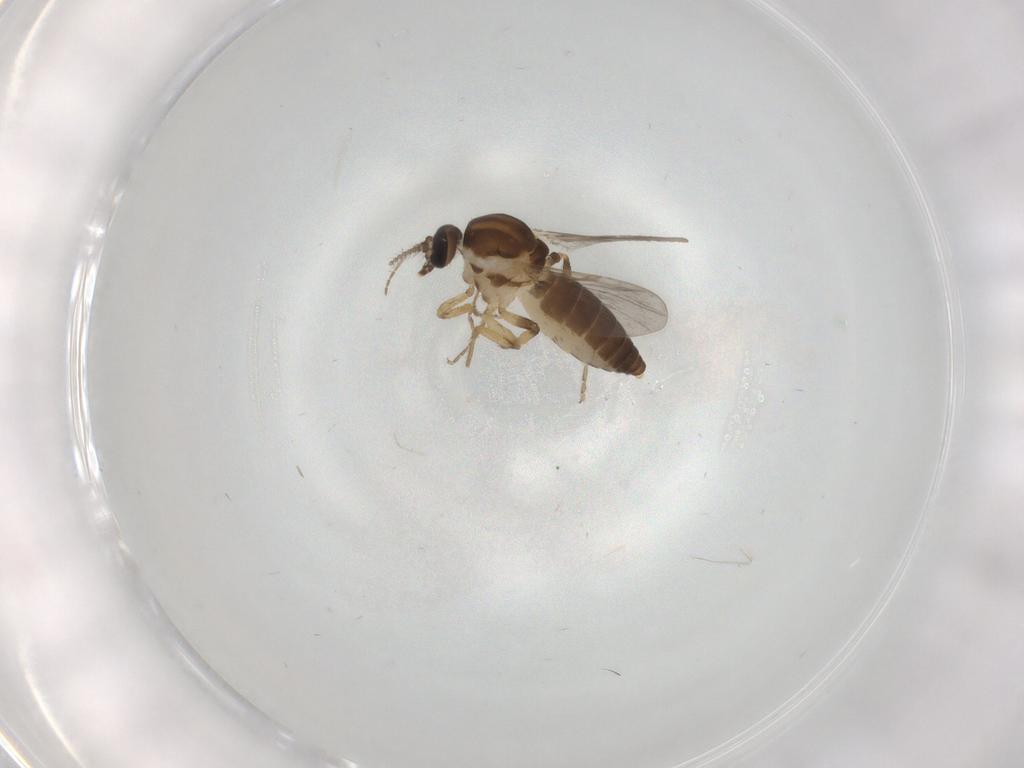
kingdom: Animalia
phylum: Arthropoda
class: Insecta
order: Diptera
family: Ceratopogonidae
